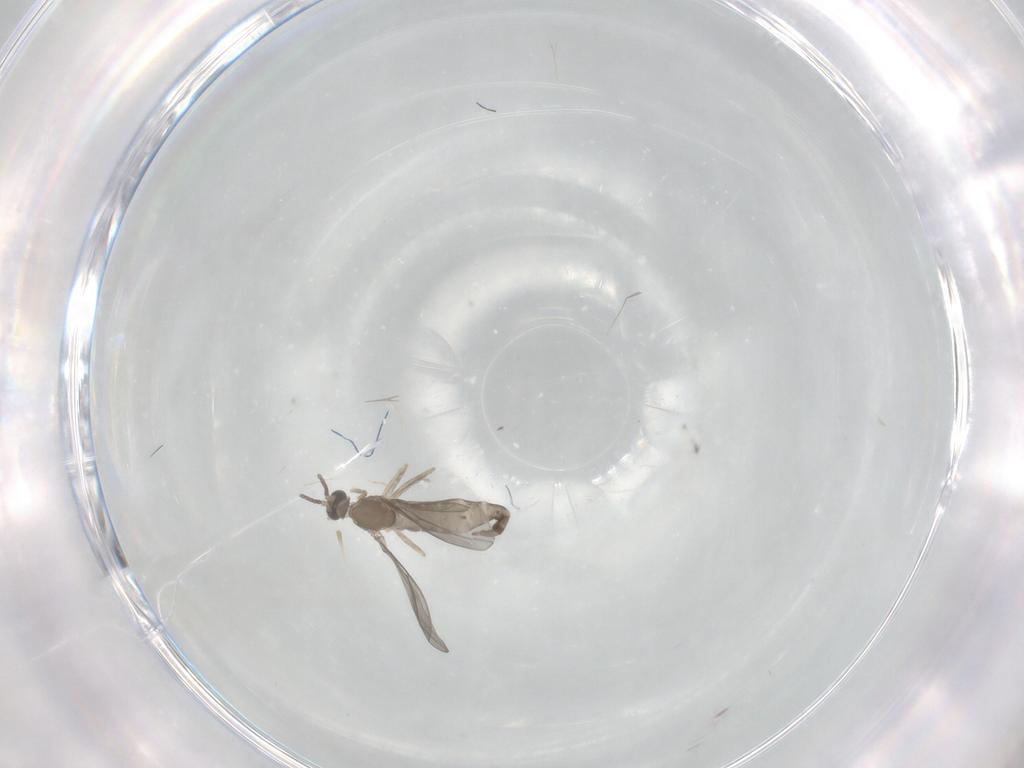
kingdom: Animalia
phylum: Arthropoda
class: Insecta
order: Diptera
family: Cecidomyiidae
